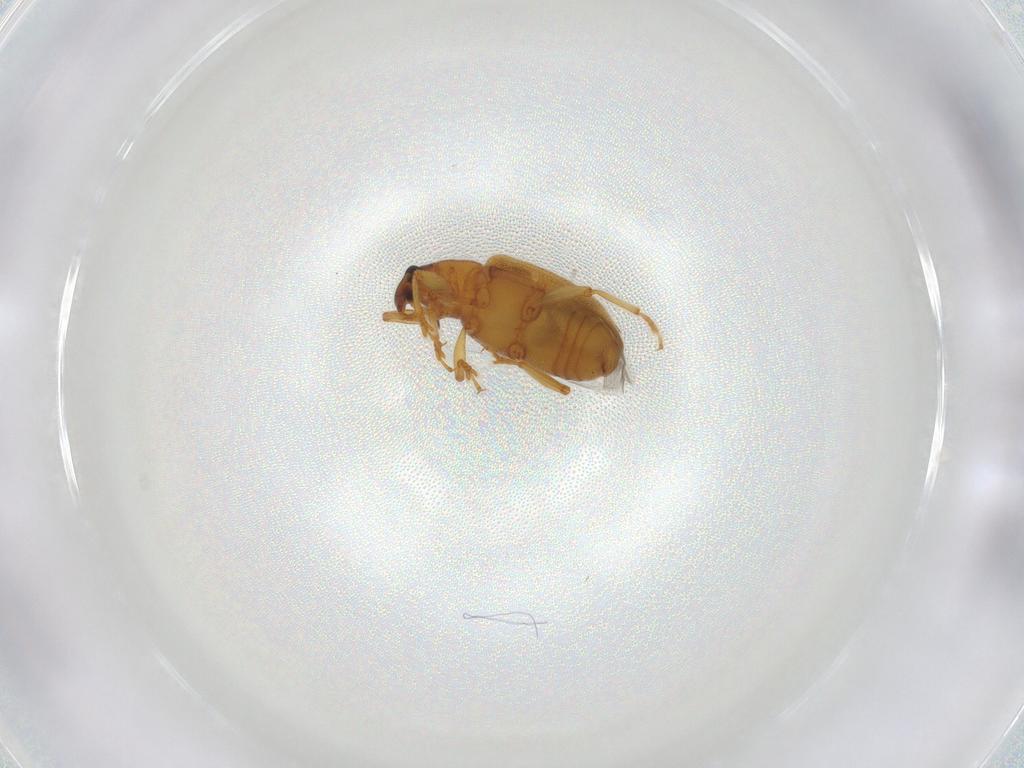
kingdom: Animalia
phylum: Arthropoda
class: Insecta
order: Coleoptera
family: Curculionidae
